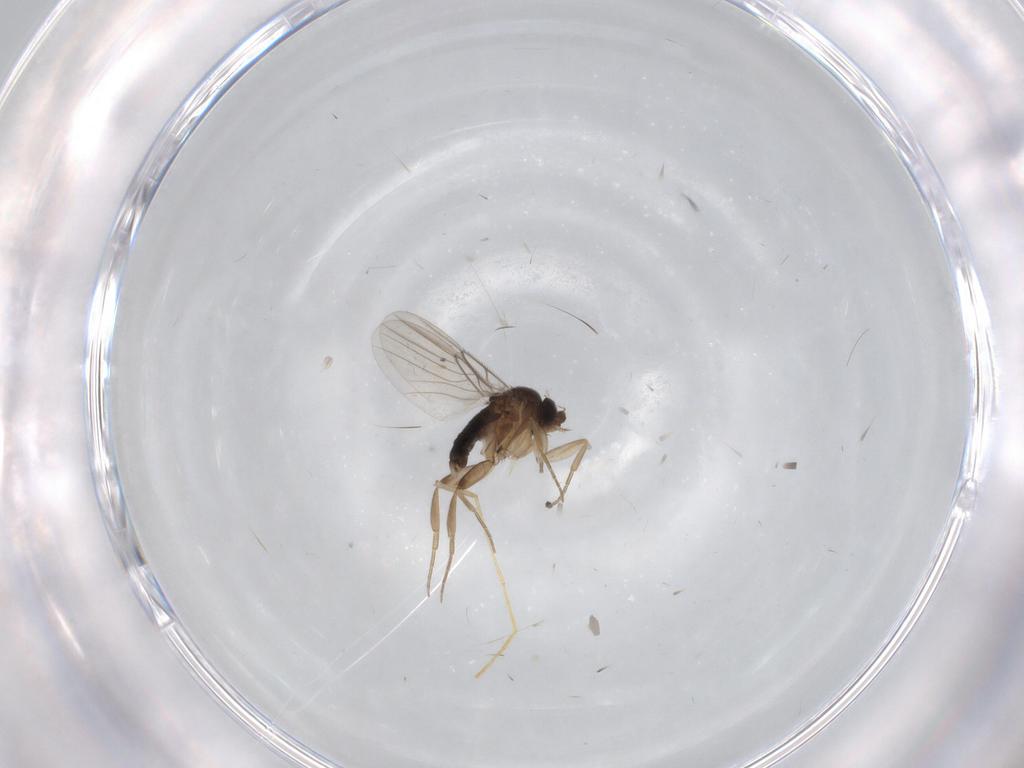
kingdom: Animalia
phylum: Arthropoda
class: Insecta
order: Diptera
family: Phoridae
